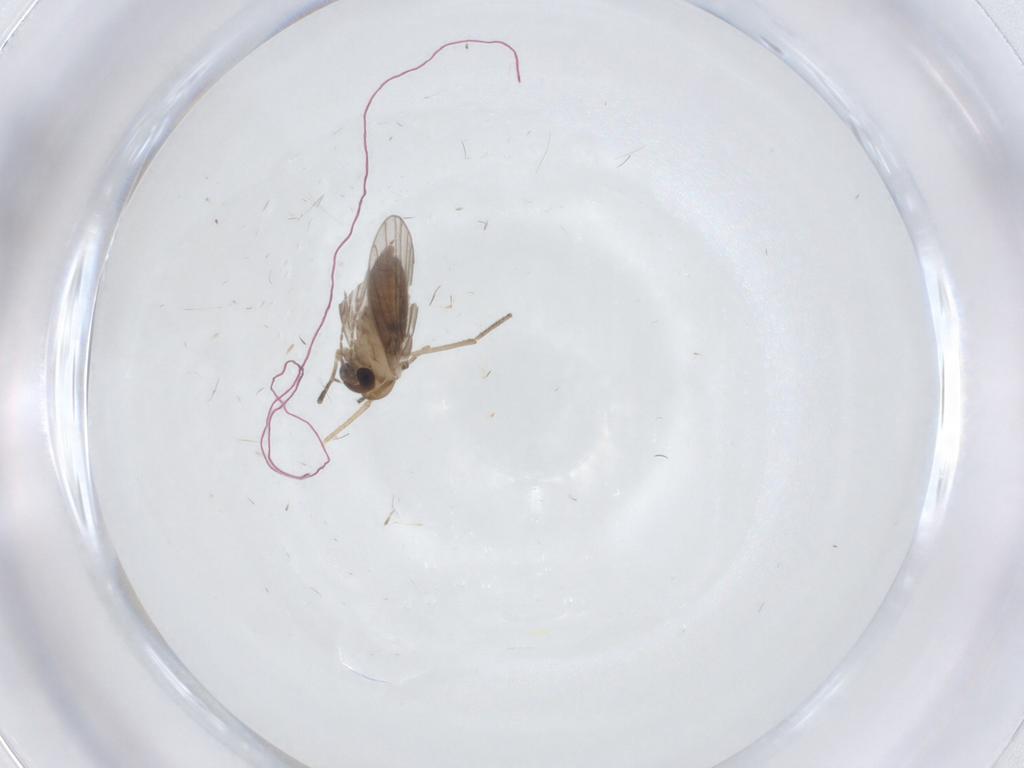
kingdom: Animalia
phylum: Arthropoda
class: Insecta
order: Diptera
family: Sciaridae
